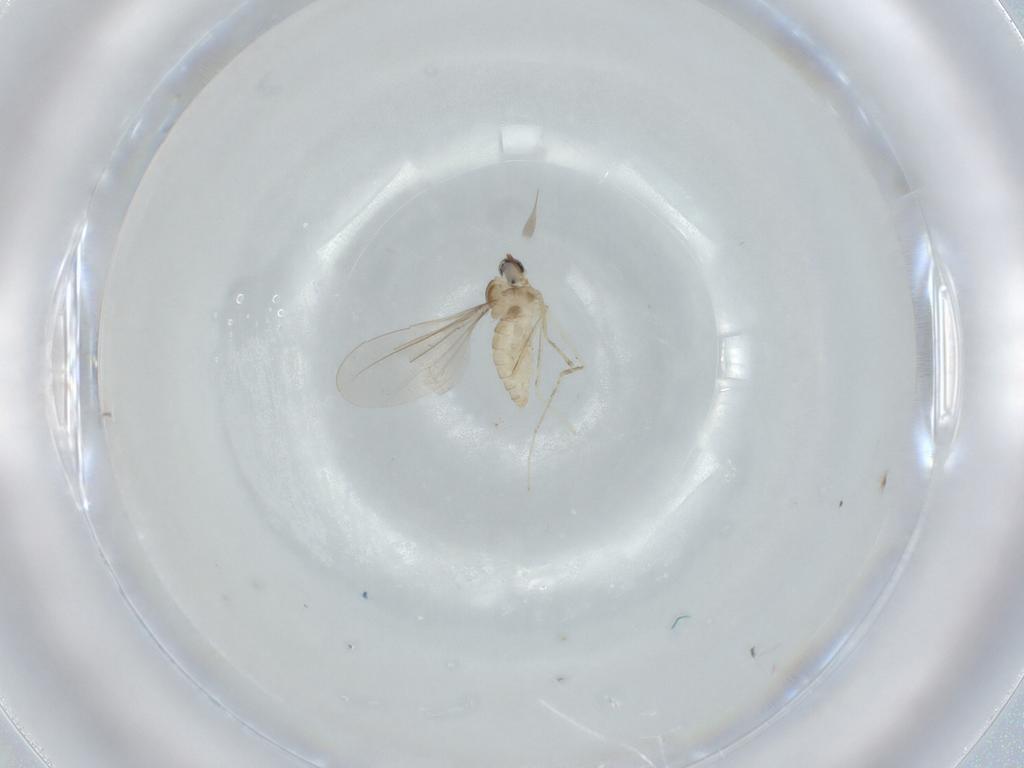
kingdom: Animalia
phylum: Arthropoda
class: Insecta
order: Diptera
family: Cecidomyiidae
